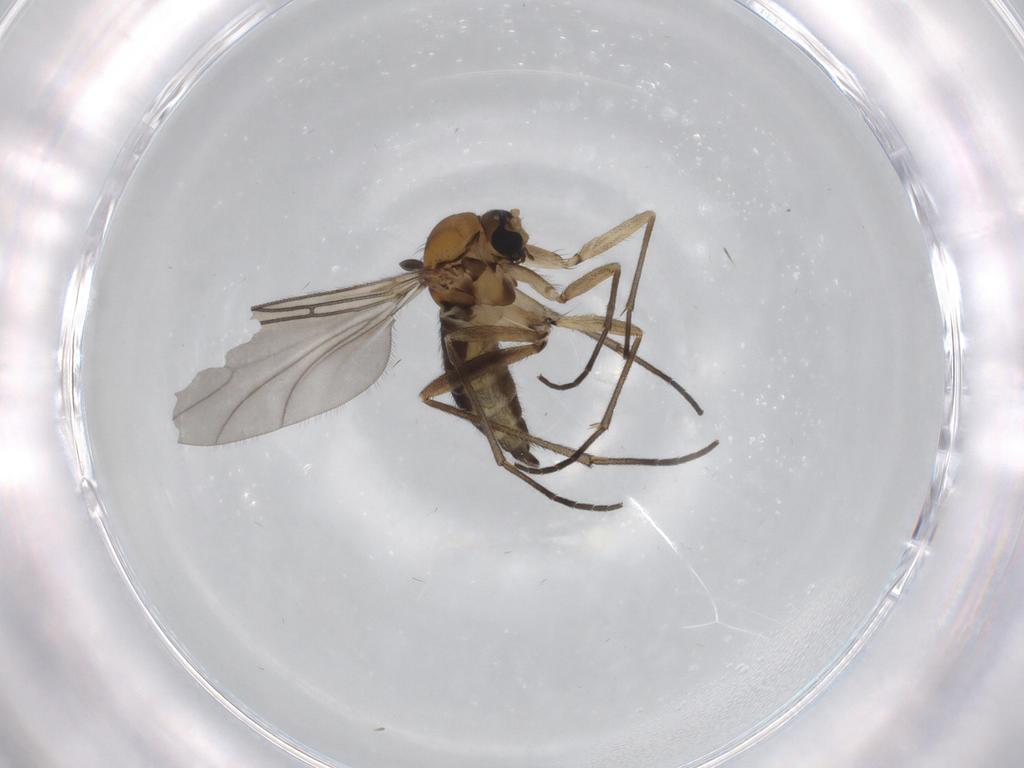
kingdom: Animalia
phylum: Arthropoda
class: Insecta
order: Diptera
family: Sciaridae
